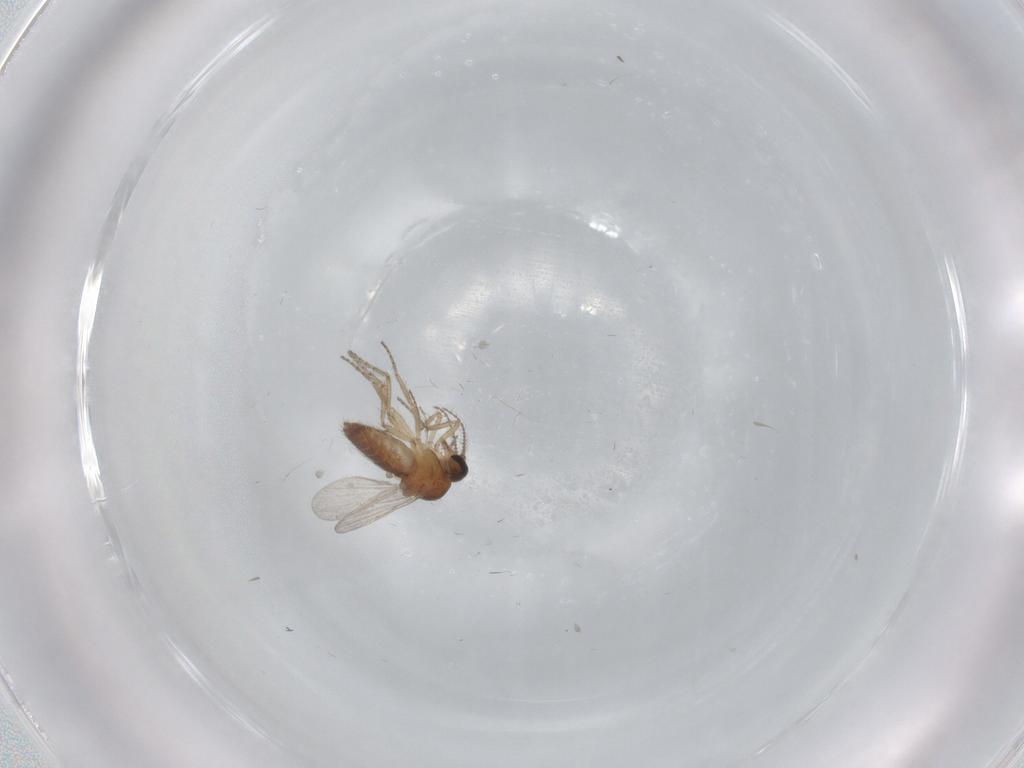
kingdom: Animalia
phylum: Arthropoda
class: Insecta
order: Diptera
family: Ceratopogonidae
